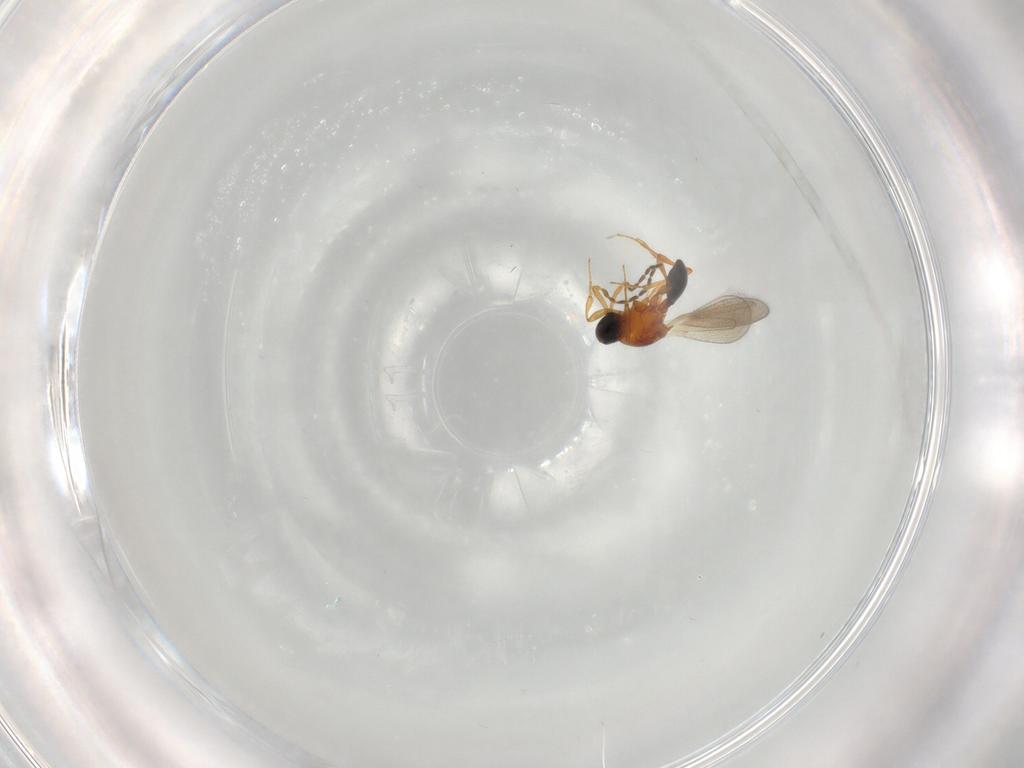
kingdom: Animalia
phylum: Arthropoda
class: Insecta
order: Hymenoptera
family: Platygastridae
